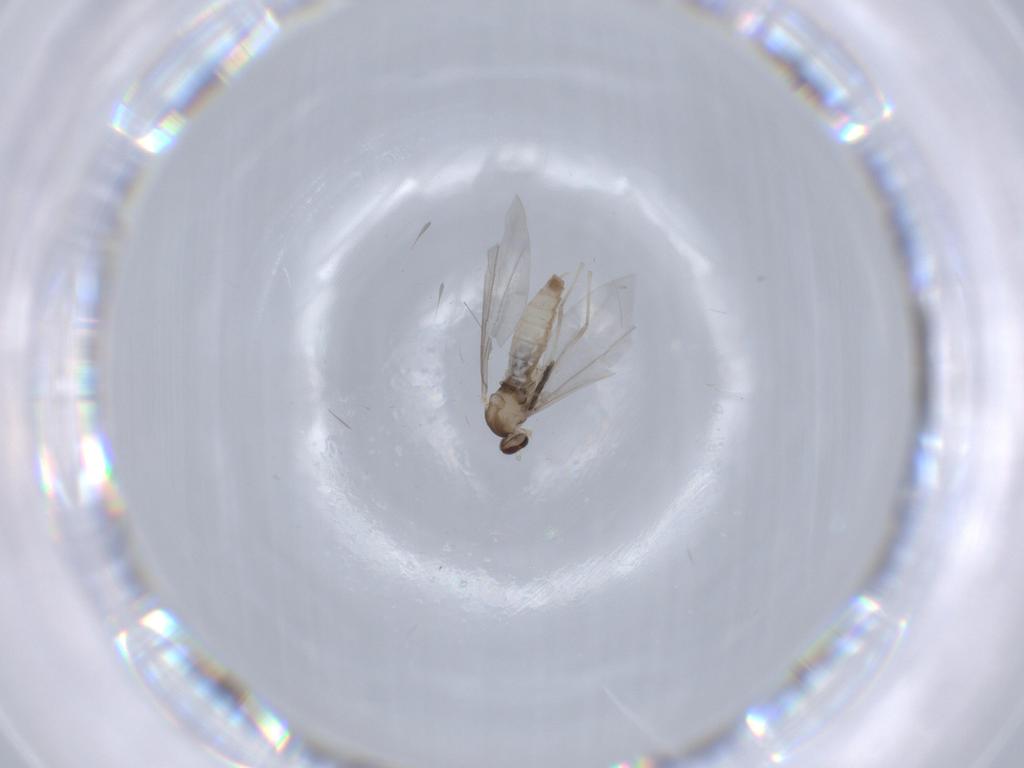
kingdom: Animalia
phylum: Arthropoda
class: Insecta
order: Diptera
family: Cecidomyiidae
